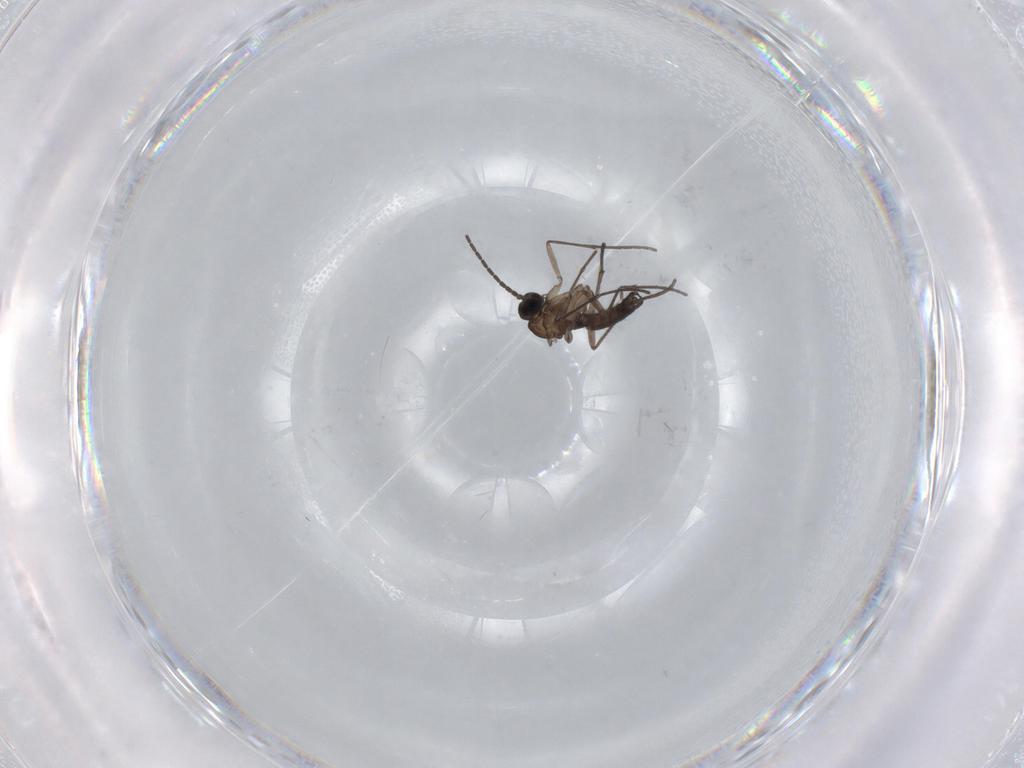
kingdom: Animalia
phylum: Arthropoda
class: Insecta
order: Diptera
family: Sciaridae
